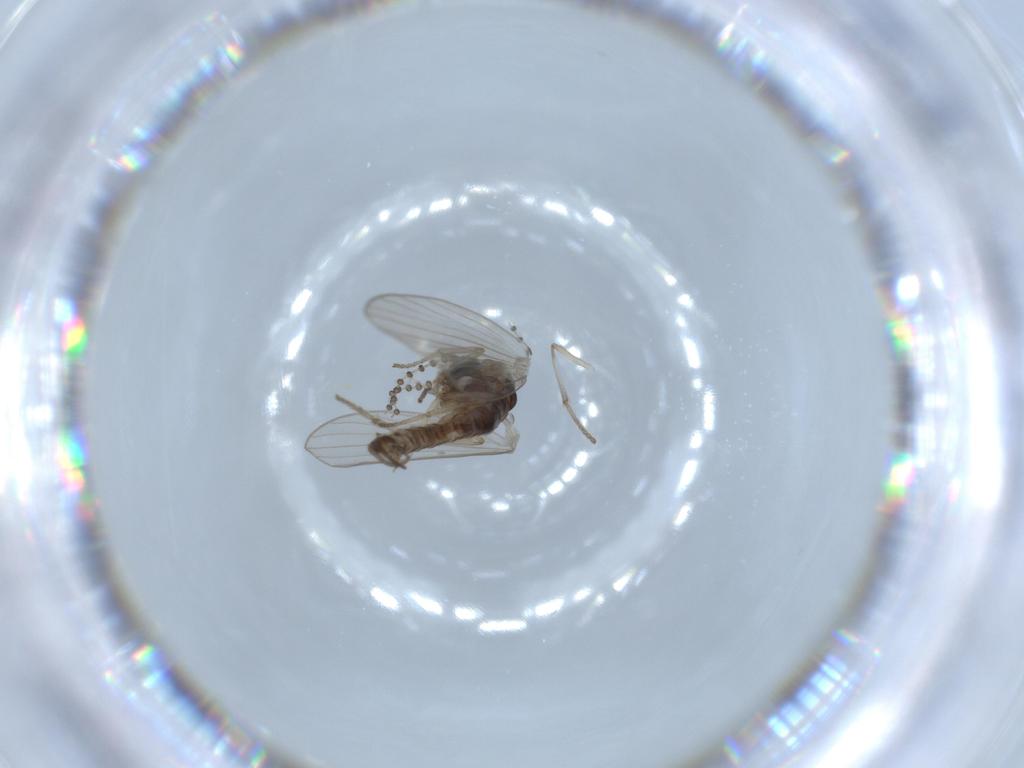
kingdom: Animalia
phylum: Arthropoda
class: Insecta
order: Diptera
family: Psychodidae
